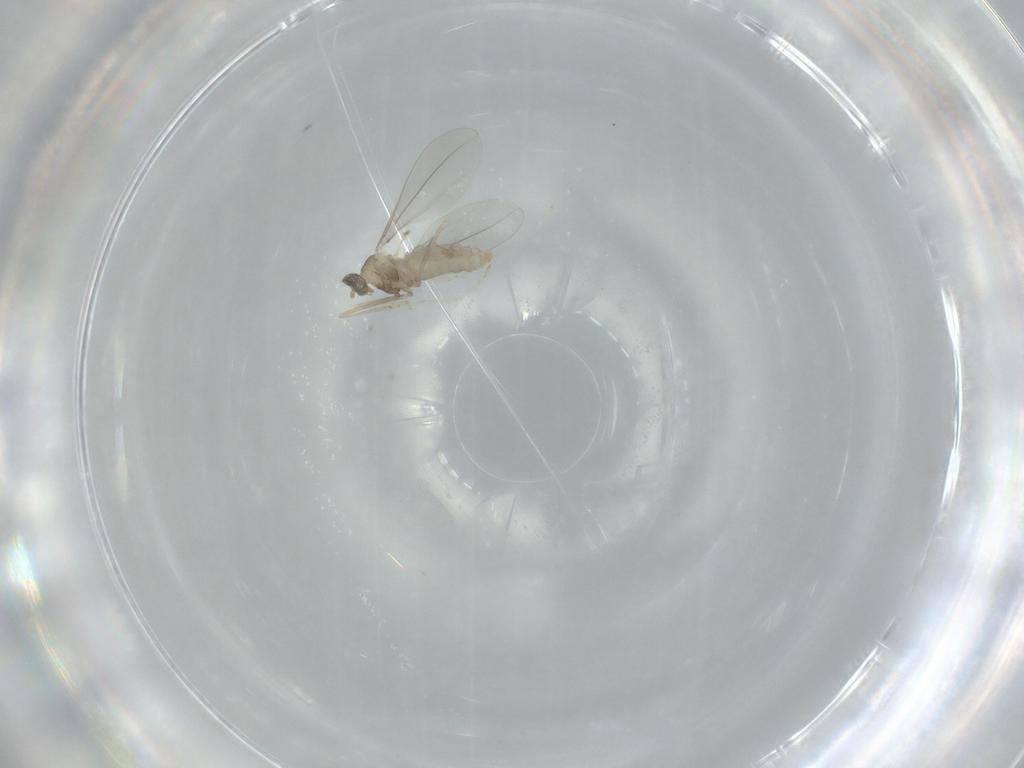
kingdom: Animalia
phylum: Arthropoda
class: Insecta
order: Diptera
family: Cecidomyiidae
